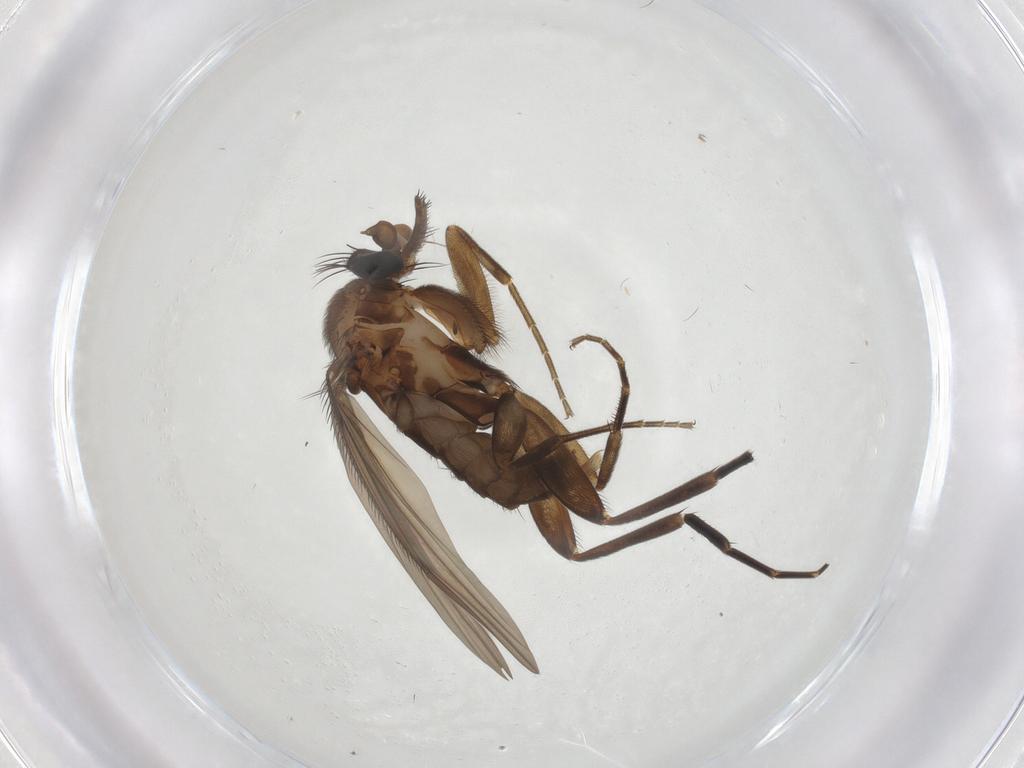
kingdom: Animalia
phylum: Arthropoda
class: Insecta
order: Diptera
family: Phoridae
